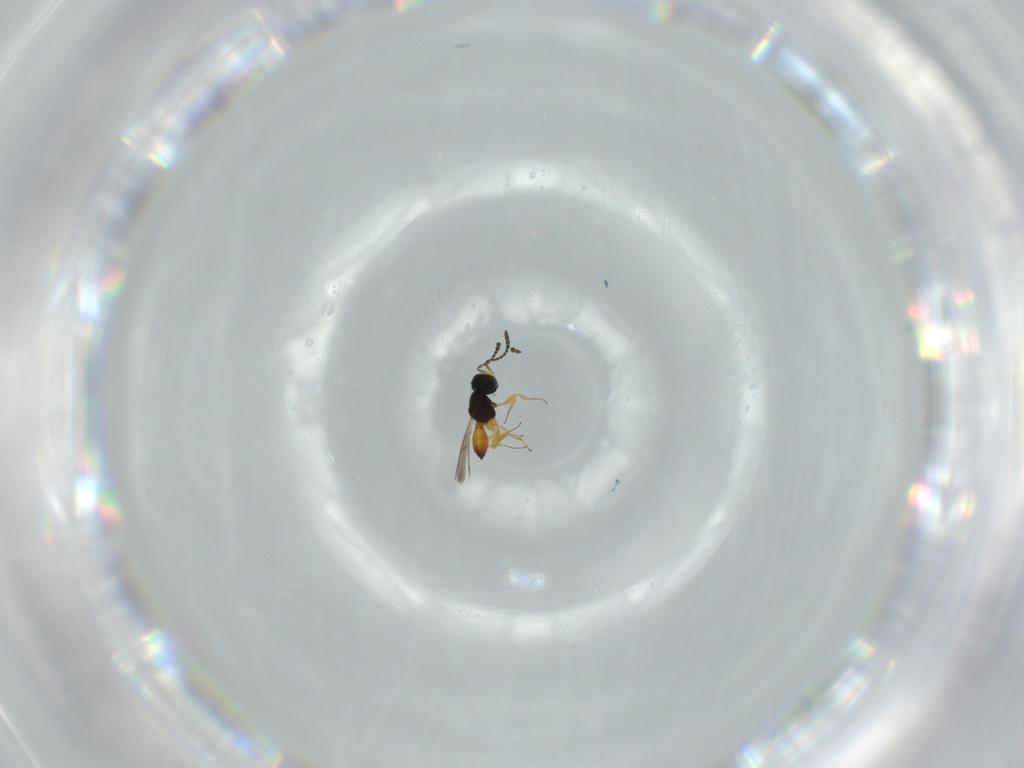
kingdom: Animalia
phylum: Arthropoda
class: Insecta
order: Hymenoptera
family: Scelionidae
